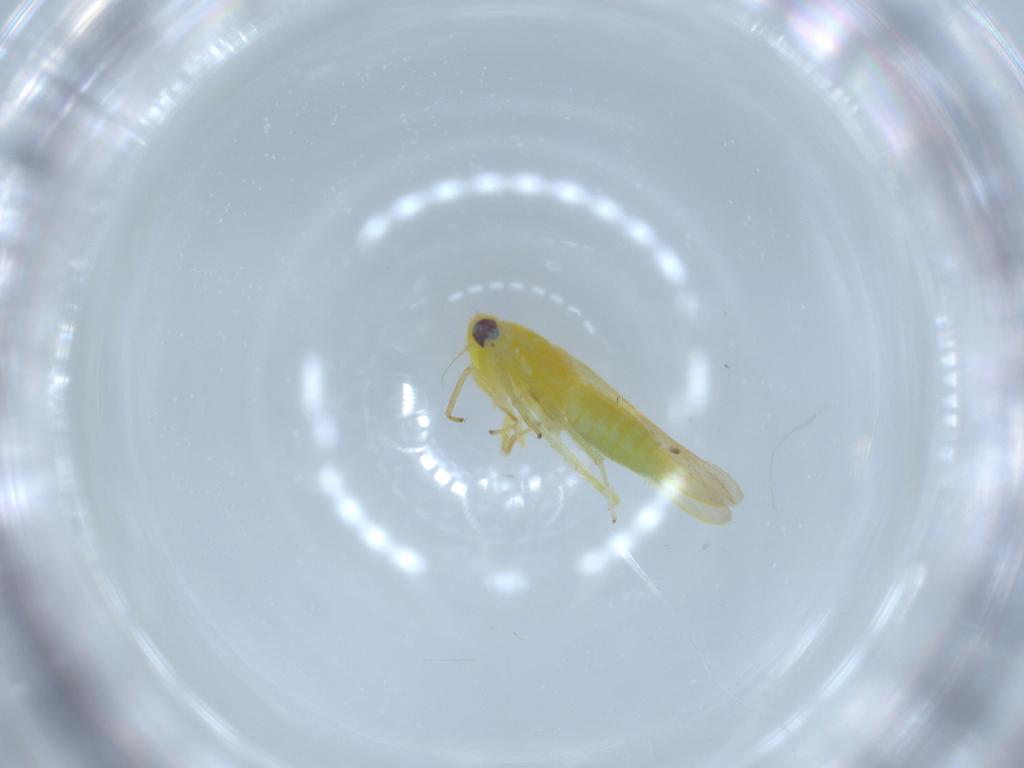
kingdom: Animalia
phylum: Arthropoda
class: Insecta
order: Hemiptera
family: Cicadellidae
